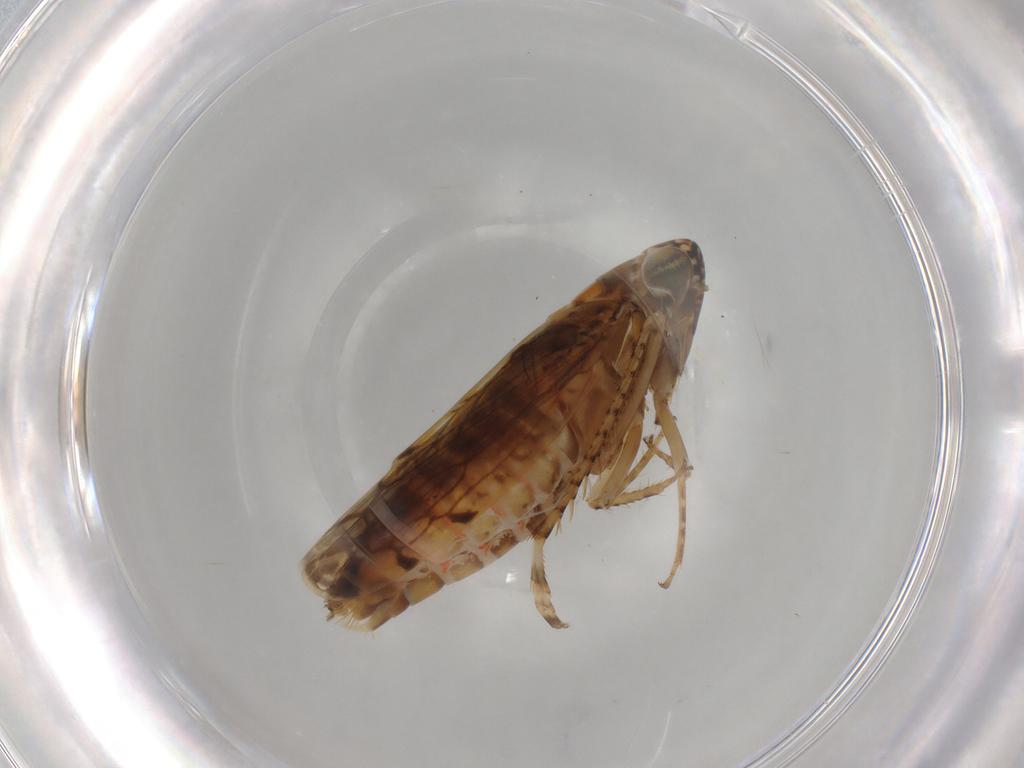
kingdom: Animalia
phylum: Arthropoda
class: Insecta
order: Hemiptera
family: Cicadellidae
